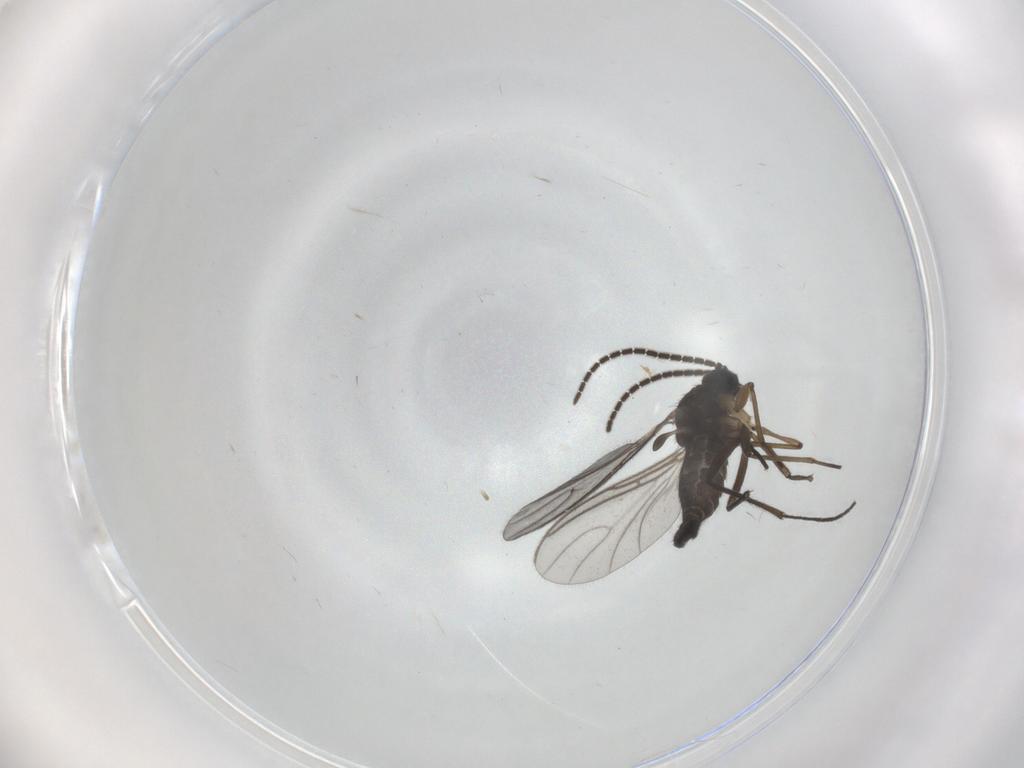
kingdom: Animalia
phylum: Arthropoda
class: Insecta
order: Diptera
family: Sciaridae
